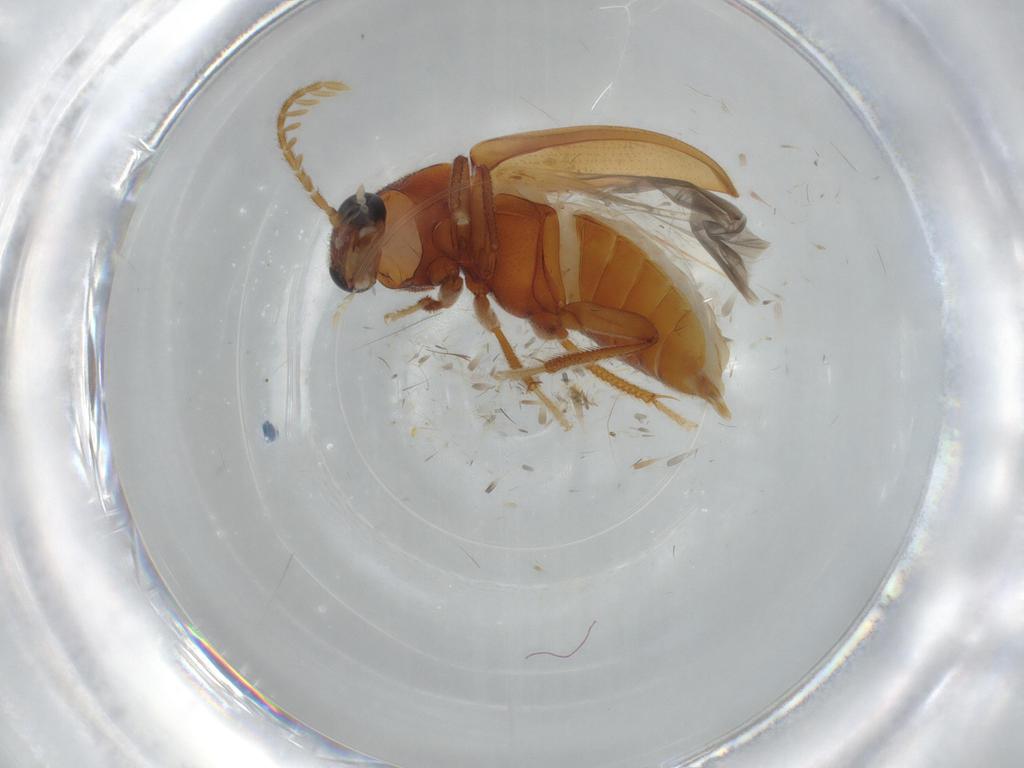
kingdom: Animalia
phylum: Arthropoda
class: Insecta
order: Coleoptera
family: Ptilodactylidae
